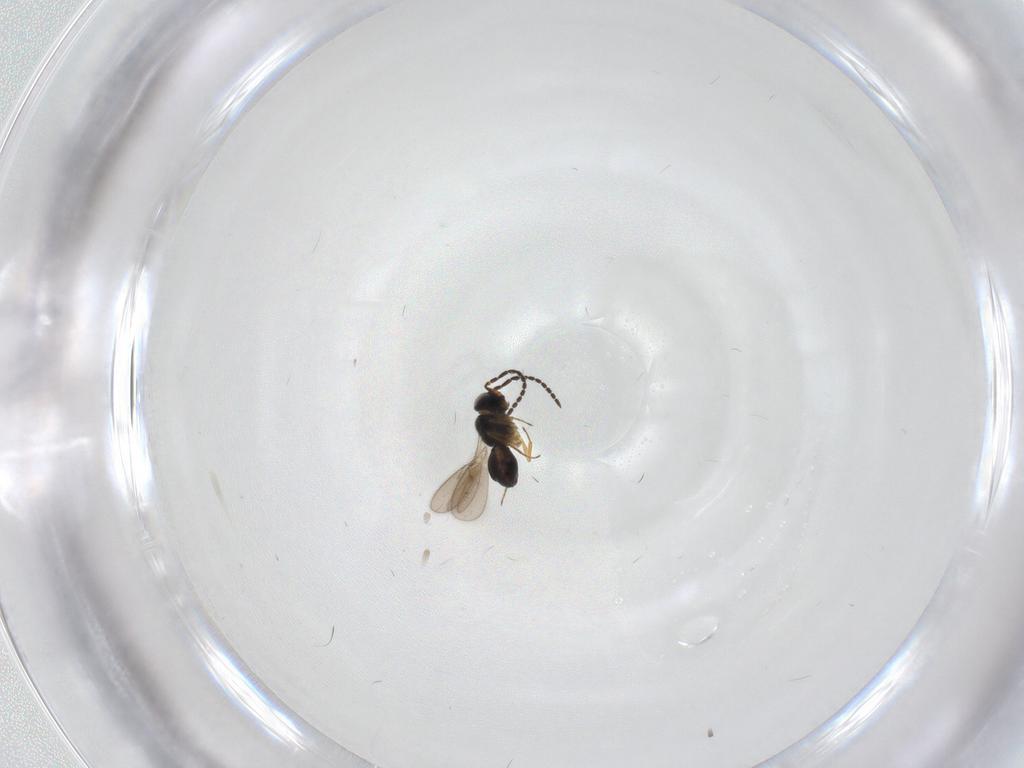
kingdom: Animalia
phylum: Arthropoda
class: Insecta
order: Hymenoptera
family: Scelionidae
